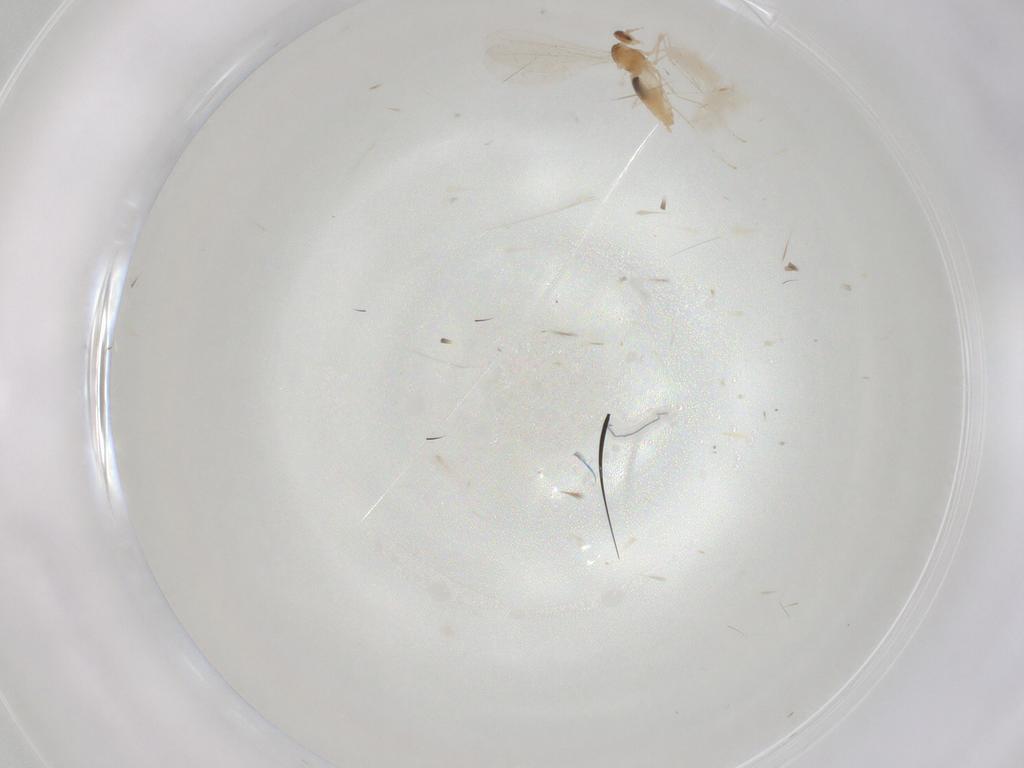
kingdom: Animalia
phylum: Arthropoda
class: Insecta
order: Diptera
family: Cecidomyiidae
